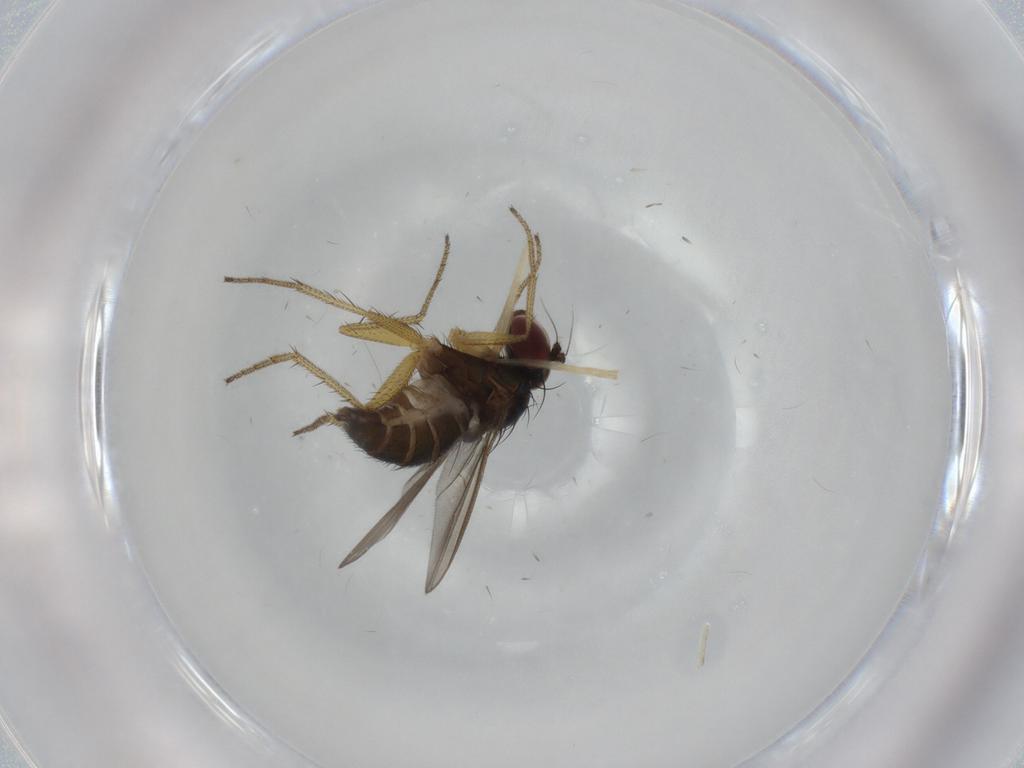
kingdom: Animalia
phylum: Arthropoda
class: Insecta
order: Diptera
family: Dolichopodidae
